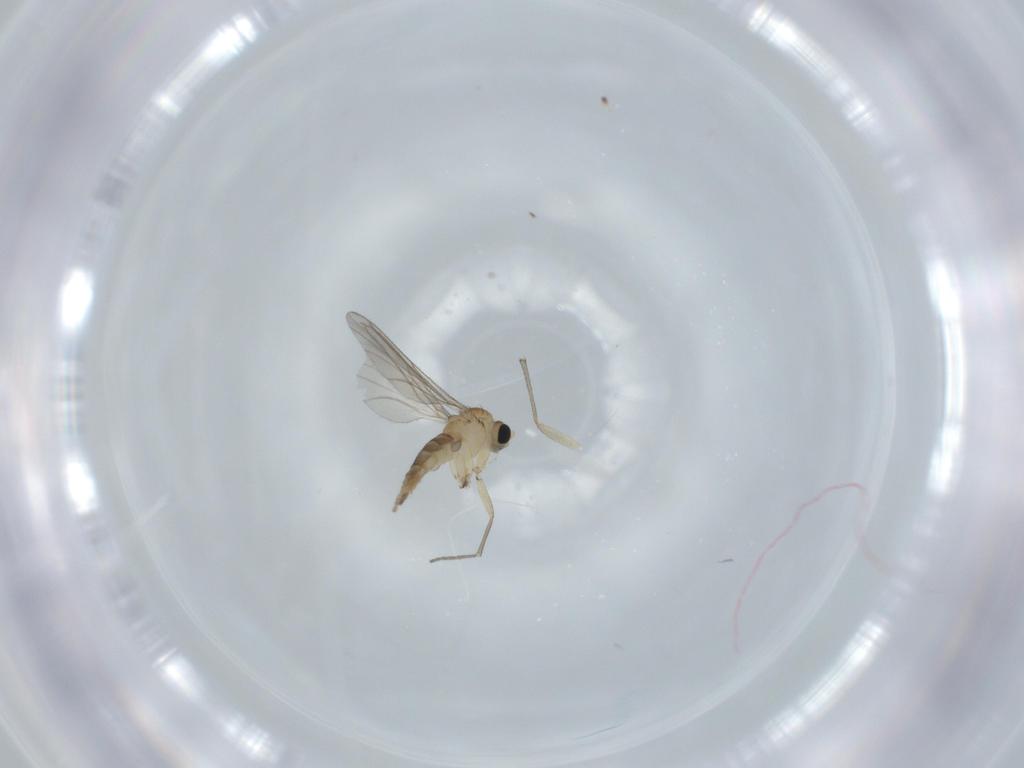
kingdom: Animalia
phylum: Arthropoda
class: Insecta
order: Diptera
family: Sciaridae
